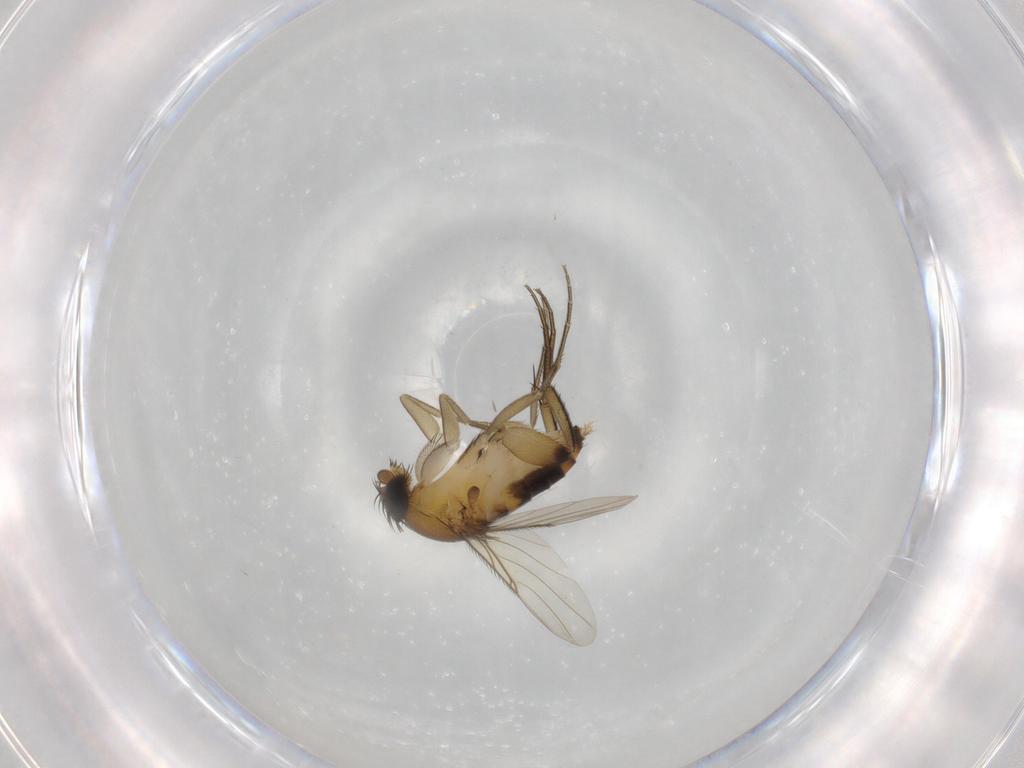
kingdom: Animalia
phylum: Arthropoda
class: Insecta
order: Diptera
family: Phoridae
